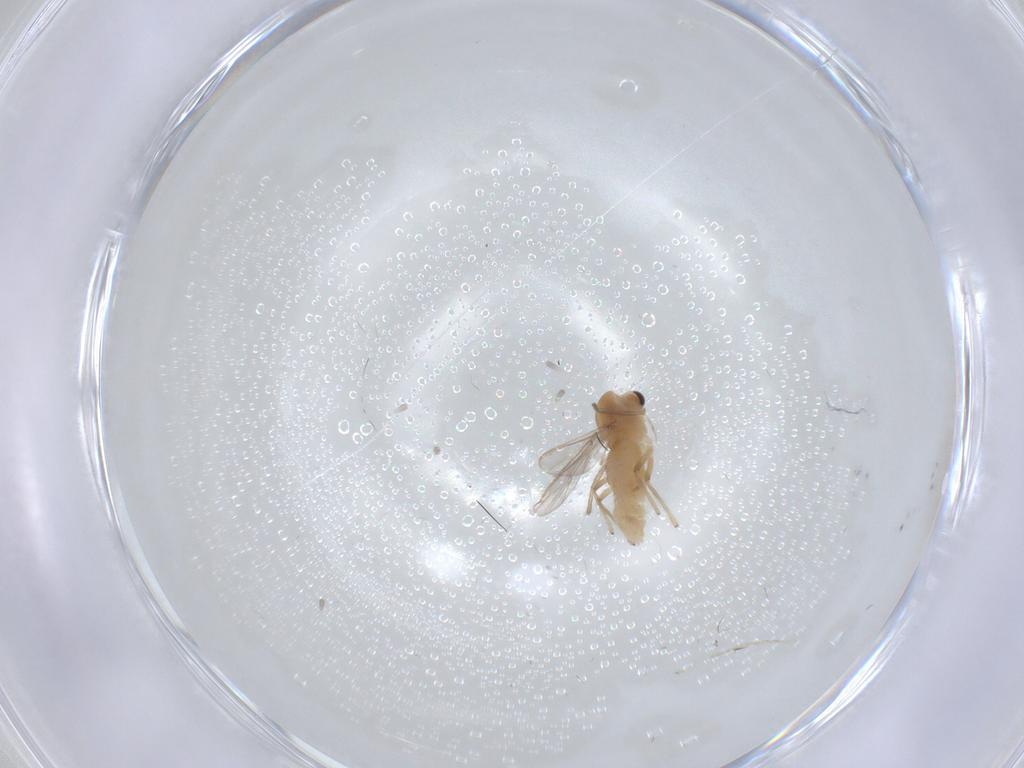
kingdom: Animalia
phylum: Arthropoda
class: Insecta
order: Diptera
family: Chironomidae
